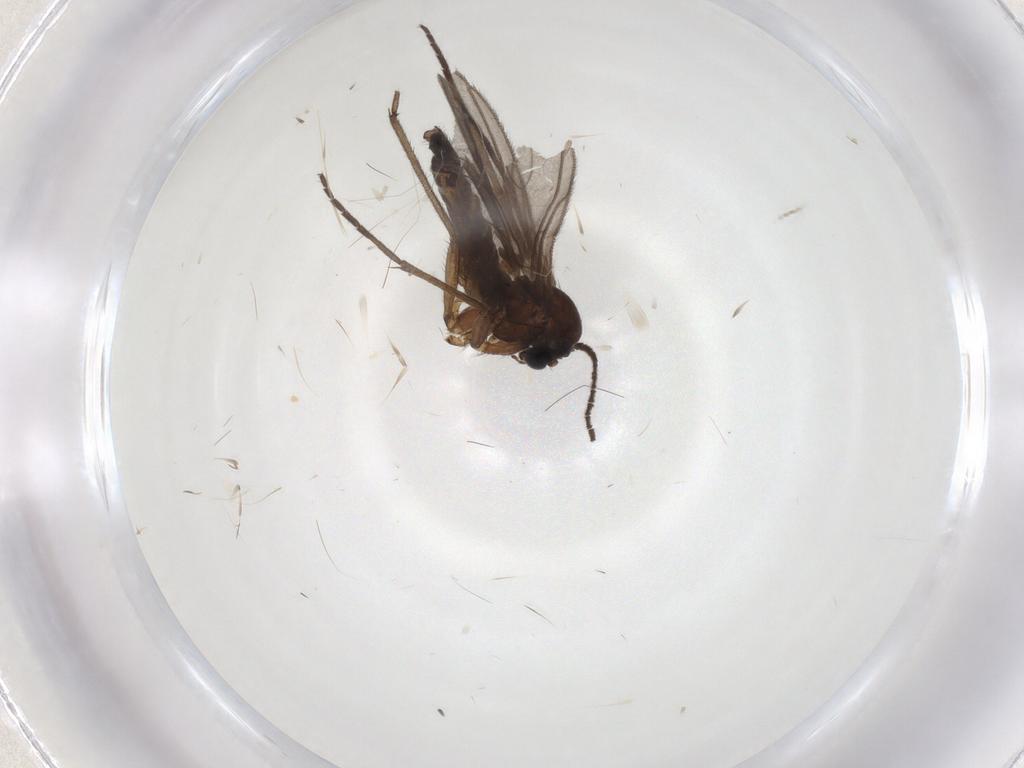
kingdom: Animalia
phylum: Arthropoda
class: Insecta
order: Diptera
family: Sciaridae
